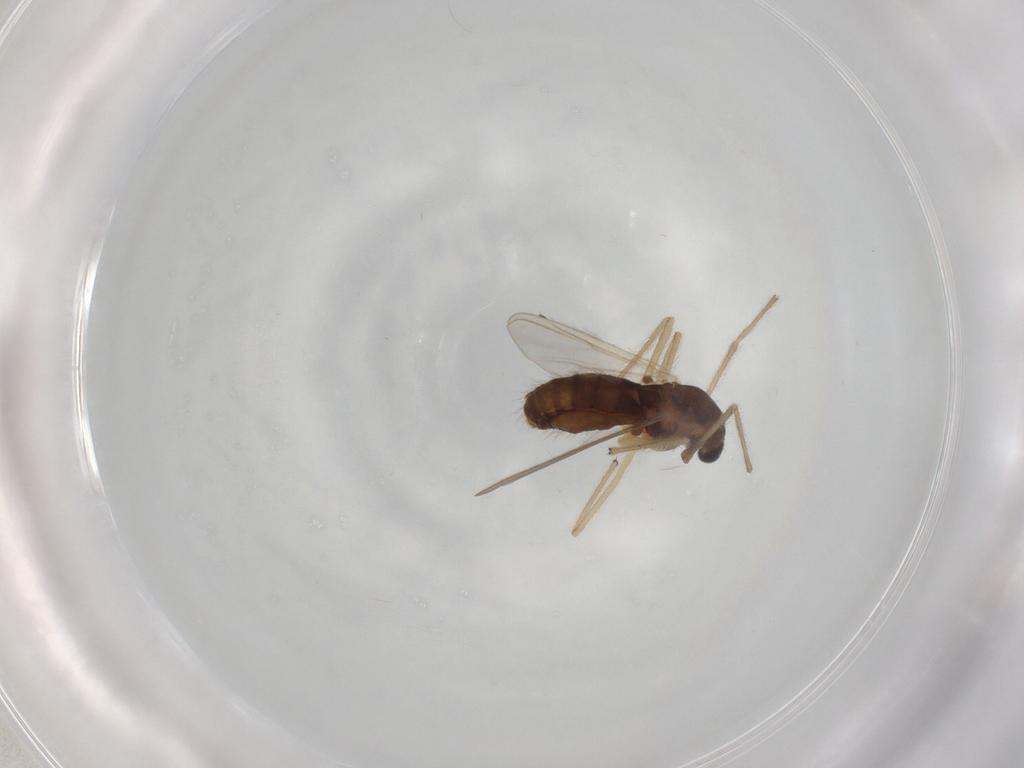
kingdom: Animalia
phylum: Arthropoda
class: Insecta
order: Diptera
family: Chironomidae
